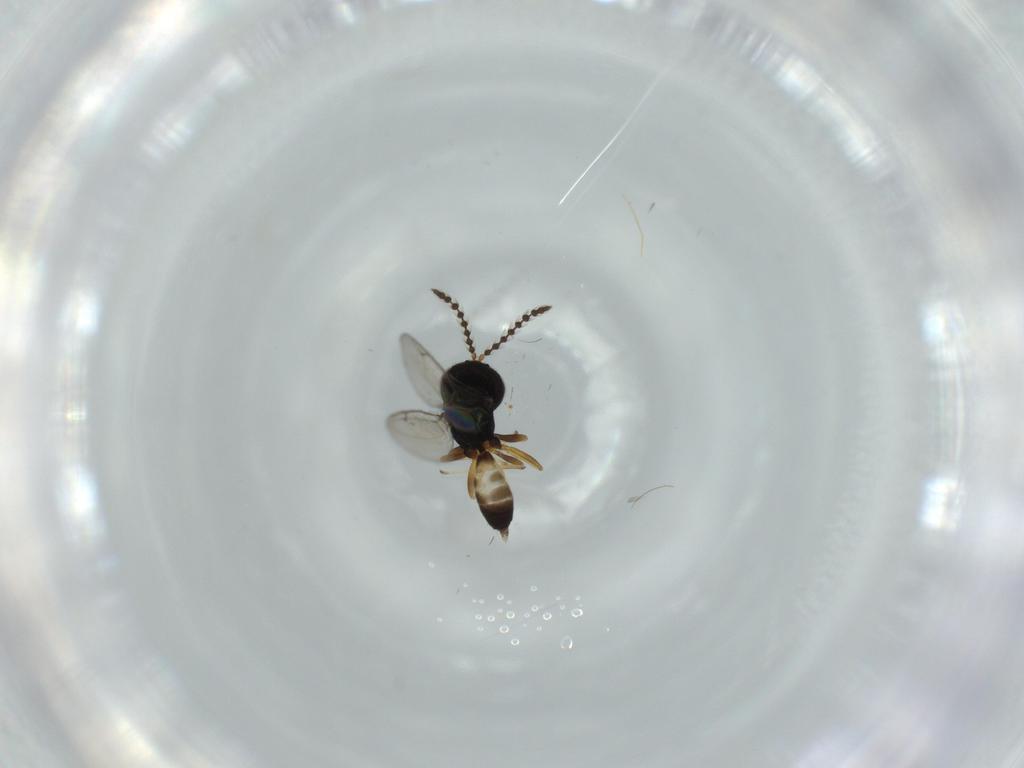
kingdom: Animalia
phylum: Arthropoda
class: Insecta
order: Hymenoptera
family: Pteromalidae
